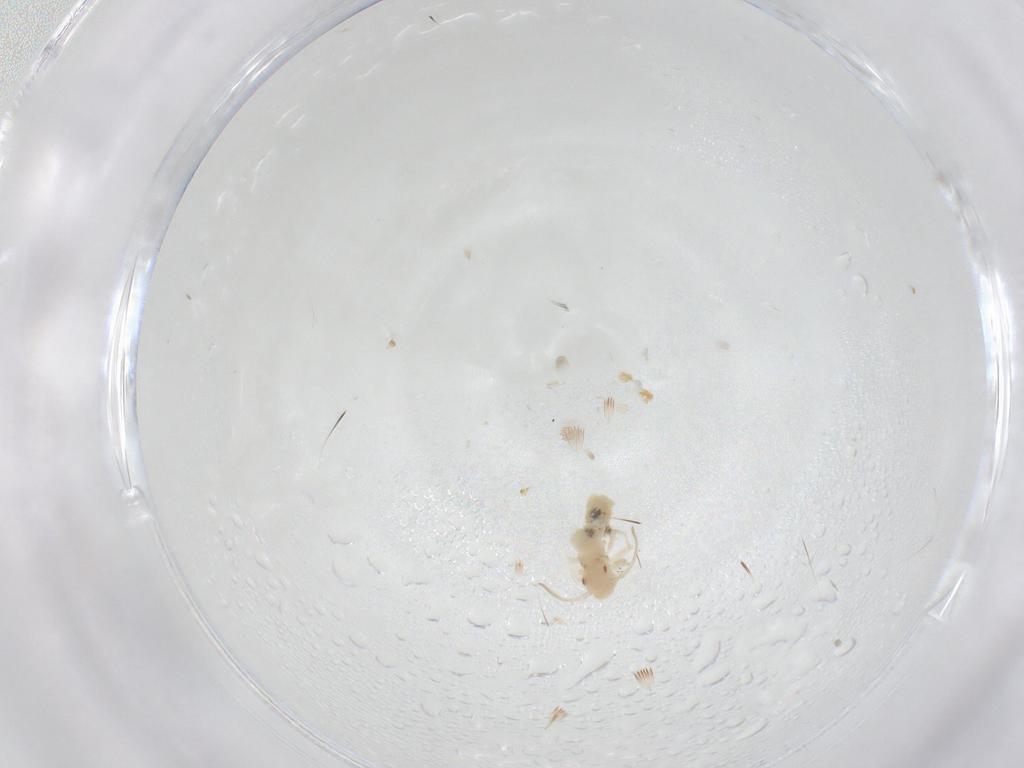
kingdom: Animalia
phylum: Arthropoda
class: Insecta
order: Psocodea
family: Caeciliusidae
